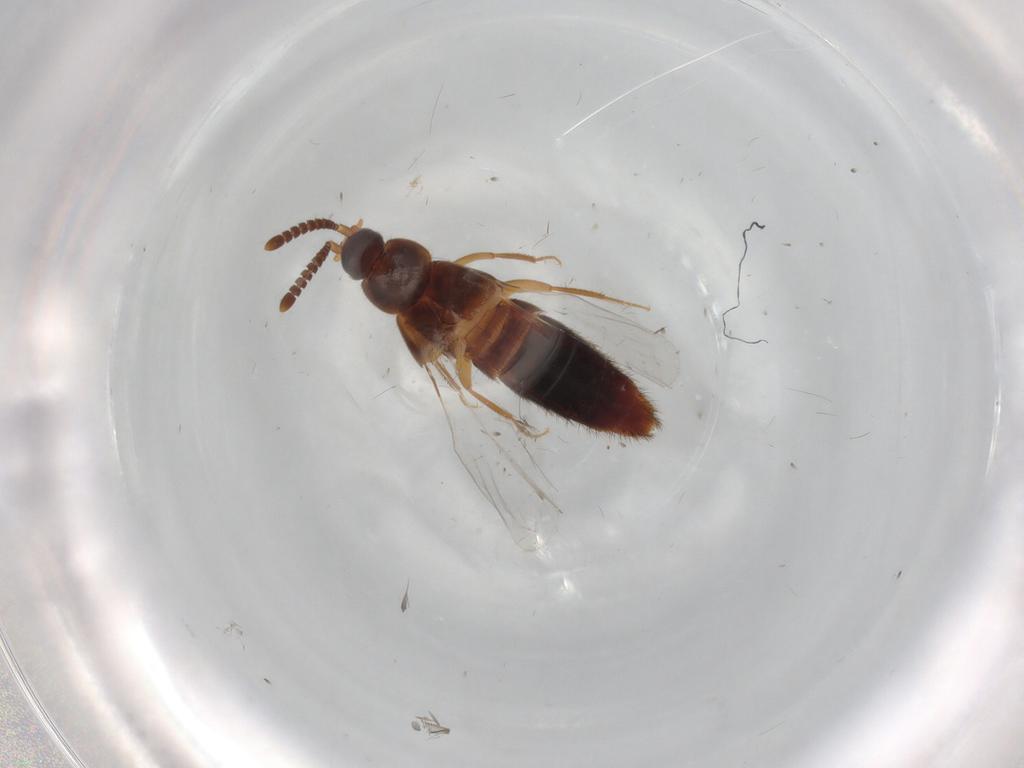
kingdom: Animalia
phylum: Arthropoda
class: Insecta
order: Coleoptera
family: Staphylinidae
